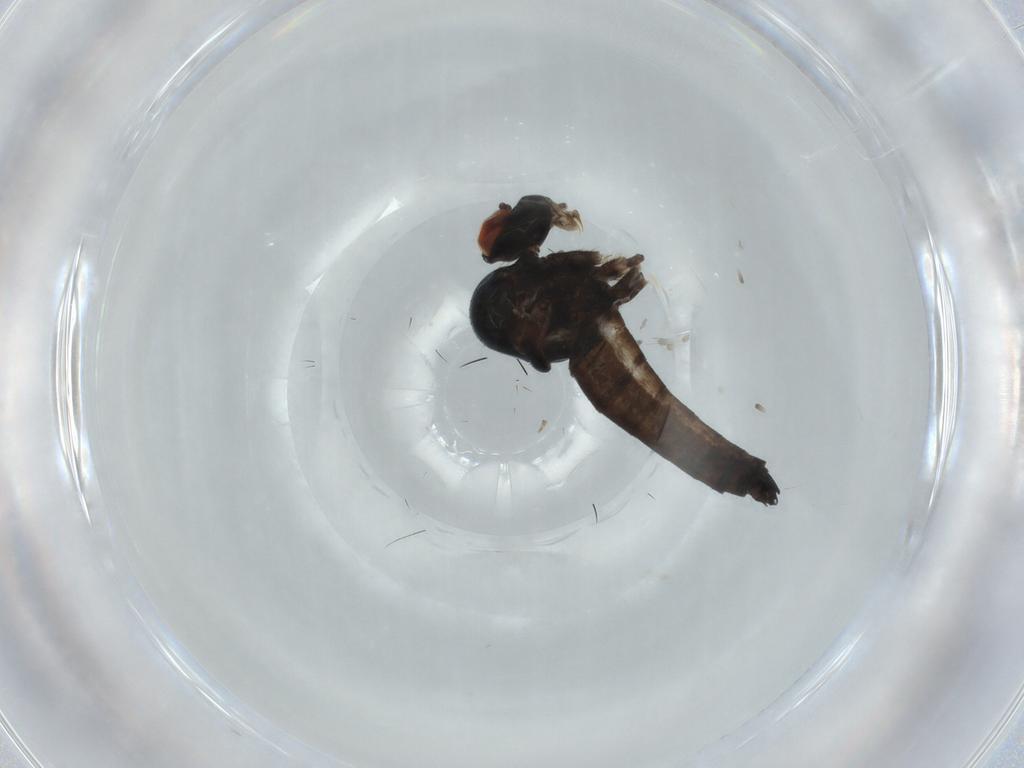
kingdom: Animalia
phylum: Arthropoda
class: Insecta
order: Diptera
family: Hybotidae
